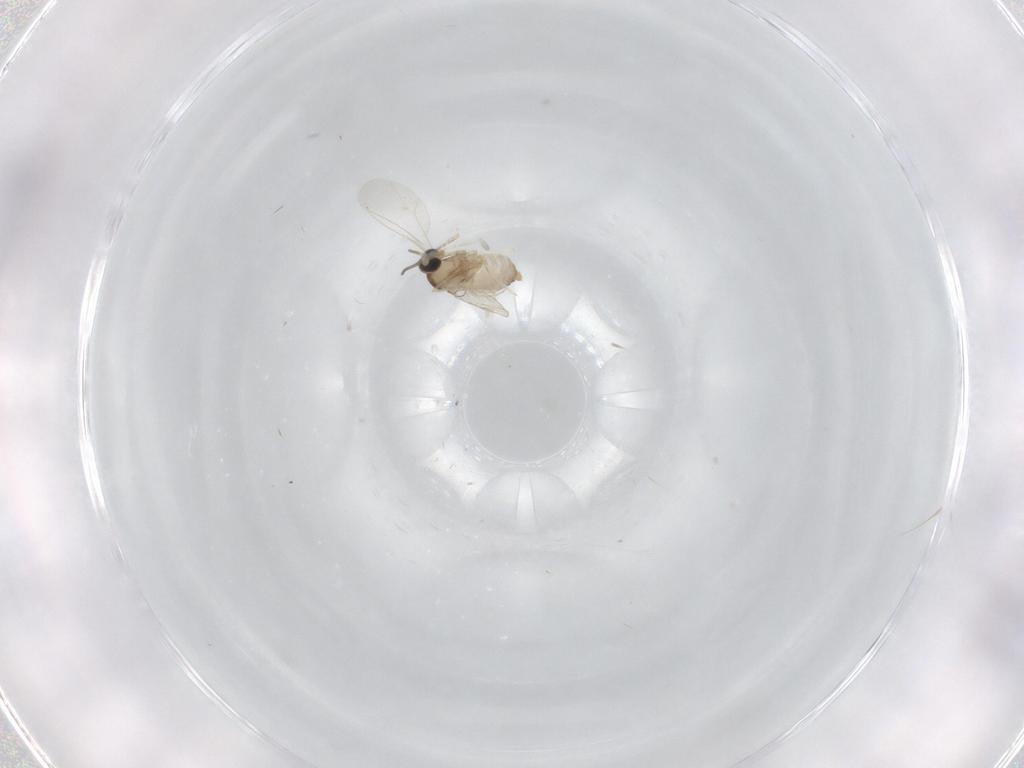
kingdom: Animalia
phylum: Arthropoda
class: Insecta
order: Diptera
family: Cecidomyiidae
